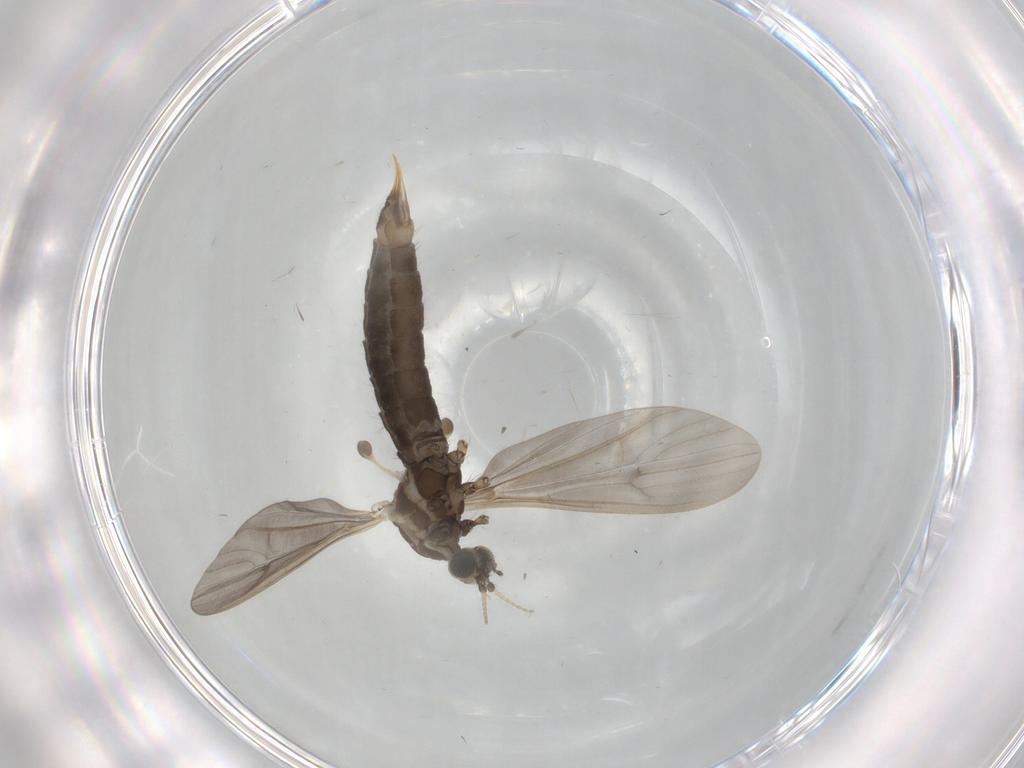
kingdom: Animalia
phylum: Arthropoda
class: Insecta
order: Diptera
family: Limoniidae
